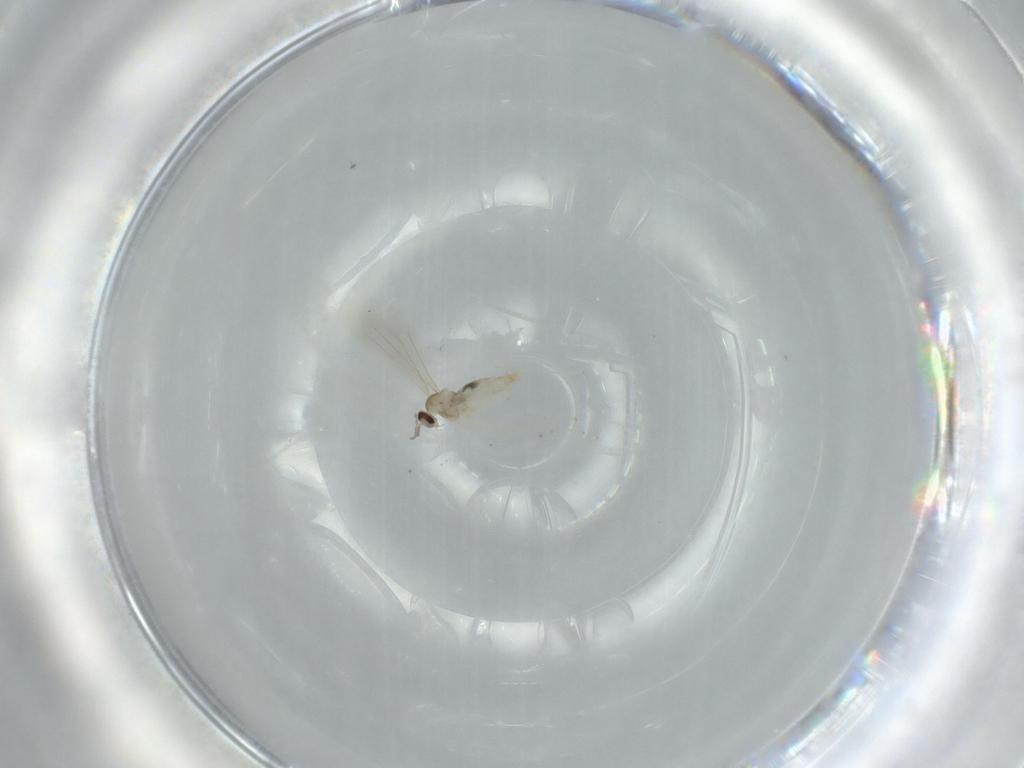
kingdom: Animalia
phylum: Arthropoda
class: Insecta
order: Diptera
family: Cecidomyiidae
